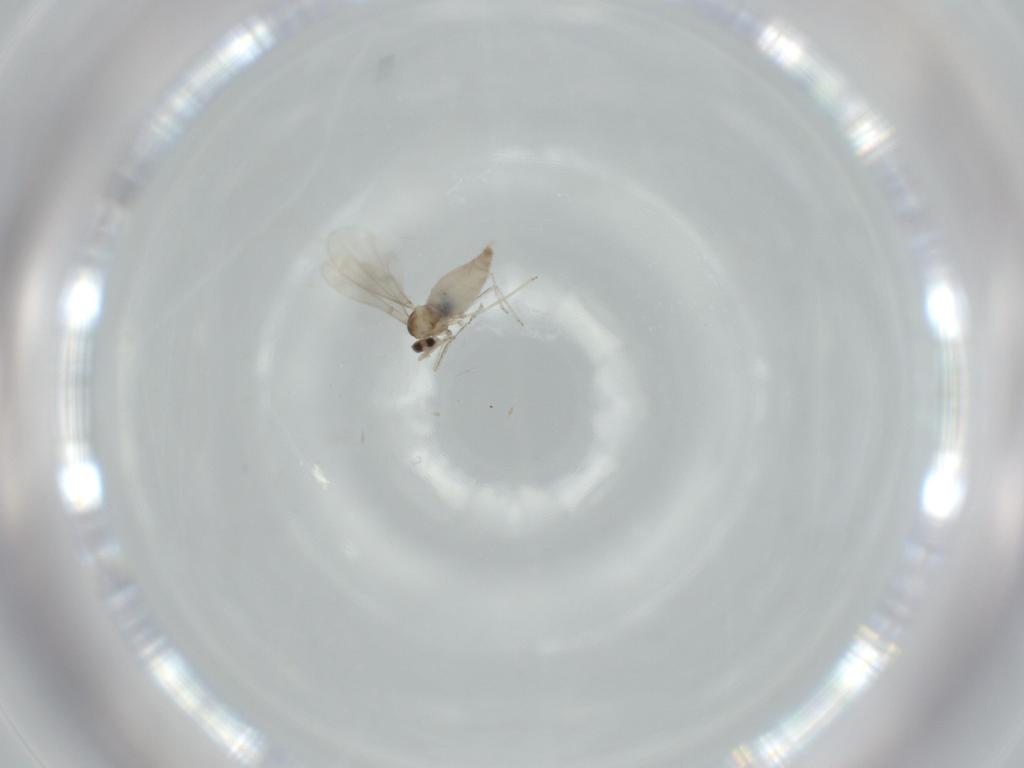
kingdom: Animalia
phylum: Arthropoda
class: Insecta
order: Diptera
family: Cecidomyiidae
